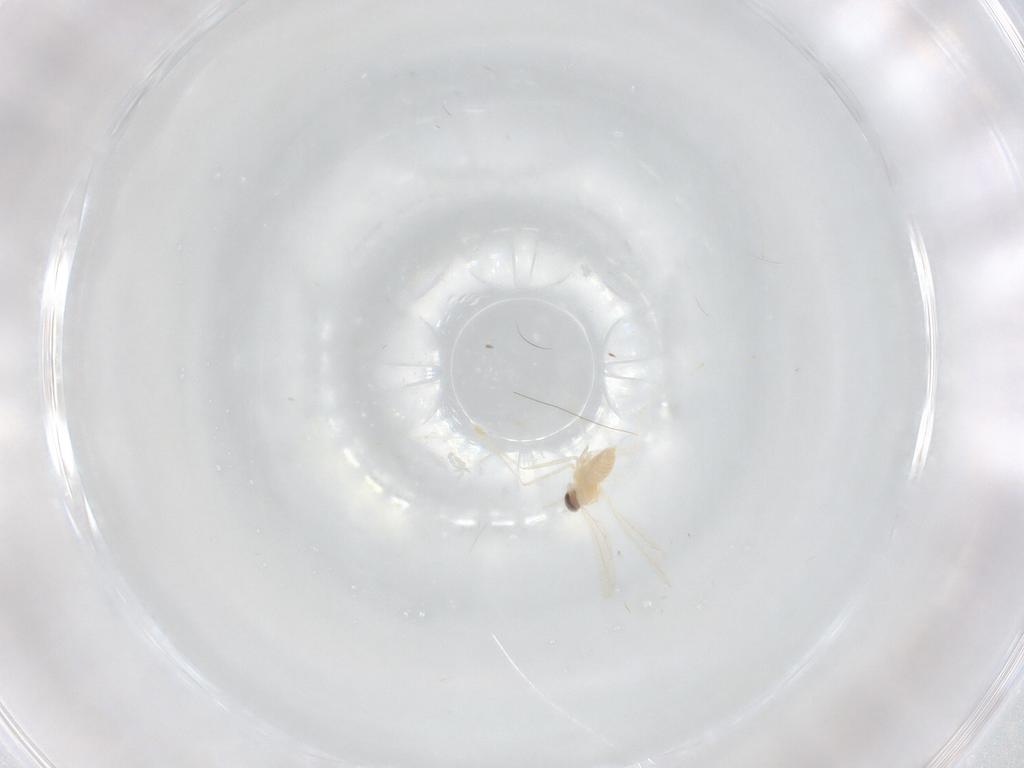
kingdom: Animalia
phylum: Arthropoda
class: Insecta
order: Diptera
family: Cecidomyiidae
